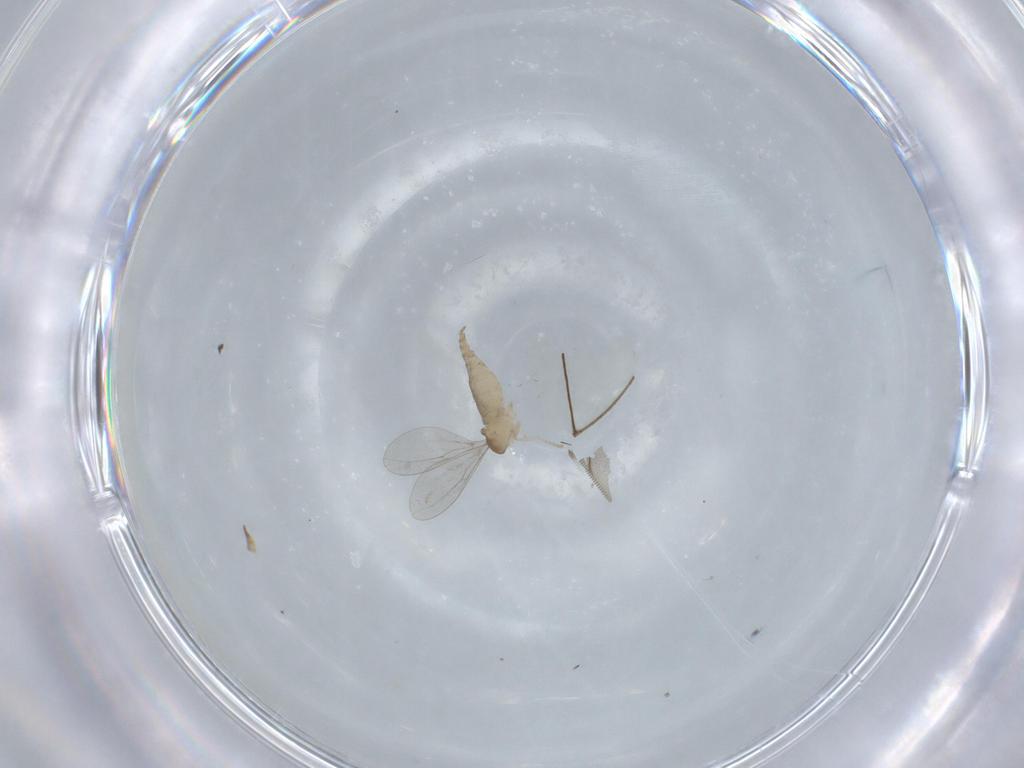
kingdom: Animalia
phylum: Arthropoda
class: Insecta
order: Diptera
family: Cecidomyiidae
